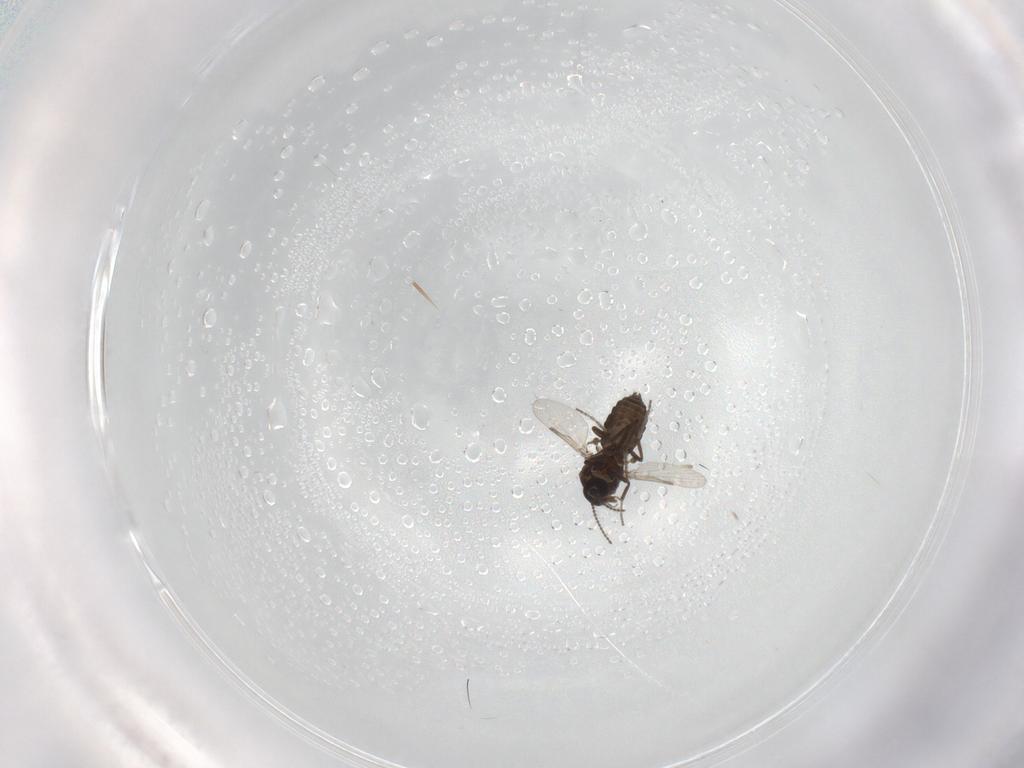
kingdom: Animalia
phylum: Arthropoda
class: Insecta
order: Diptera
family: Ceratopogonidae
